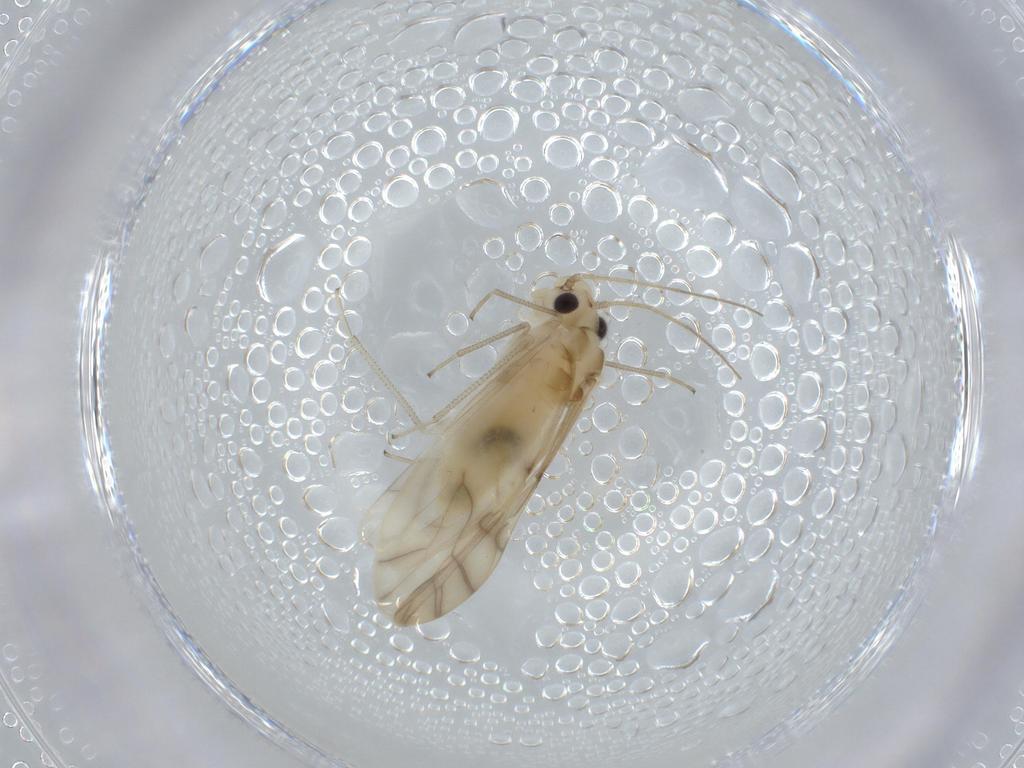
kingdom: Animalia
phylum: Arthropoda
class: Insecta
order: Psocodea
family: Caeciliusidae
